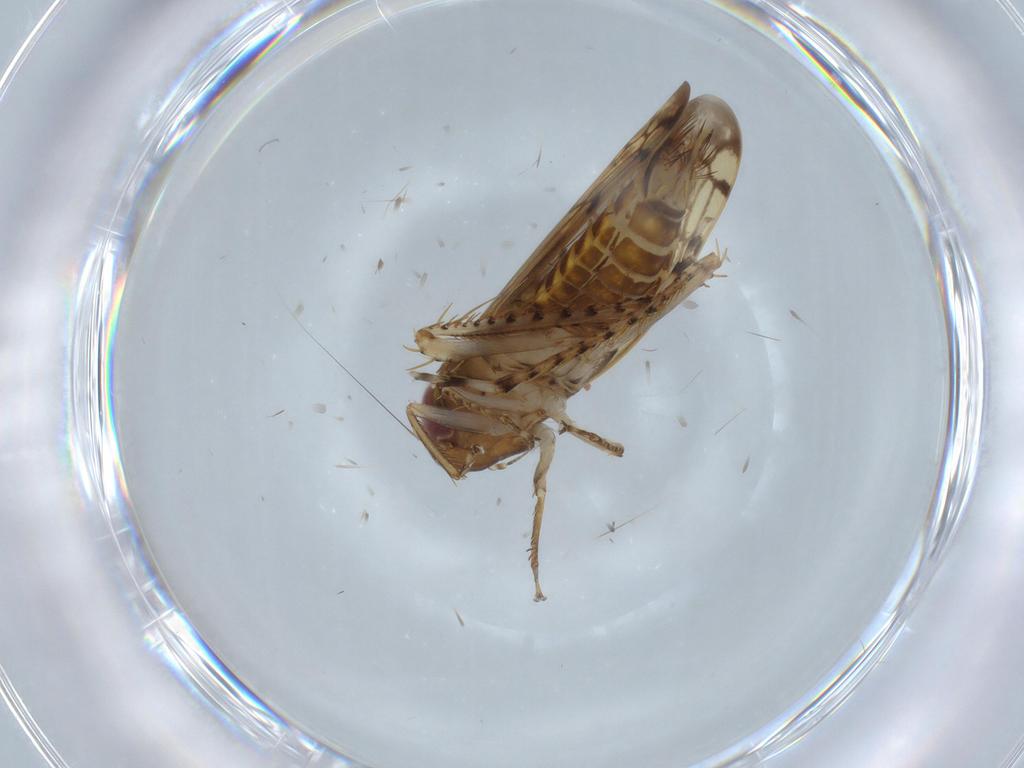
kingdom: Animalia
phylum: Arthropoda
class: Insecta
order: Hemiptera
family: Cicadellidae
